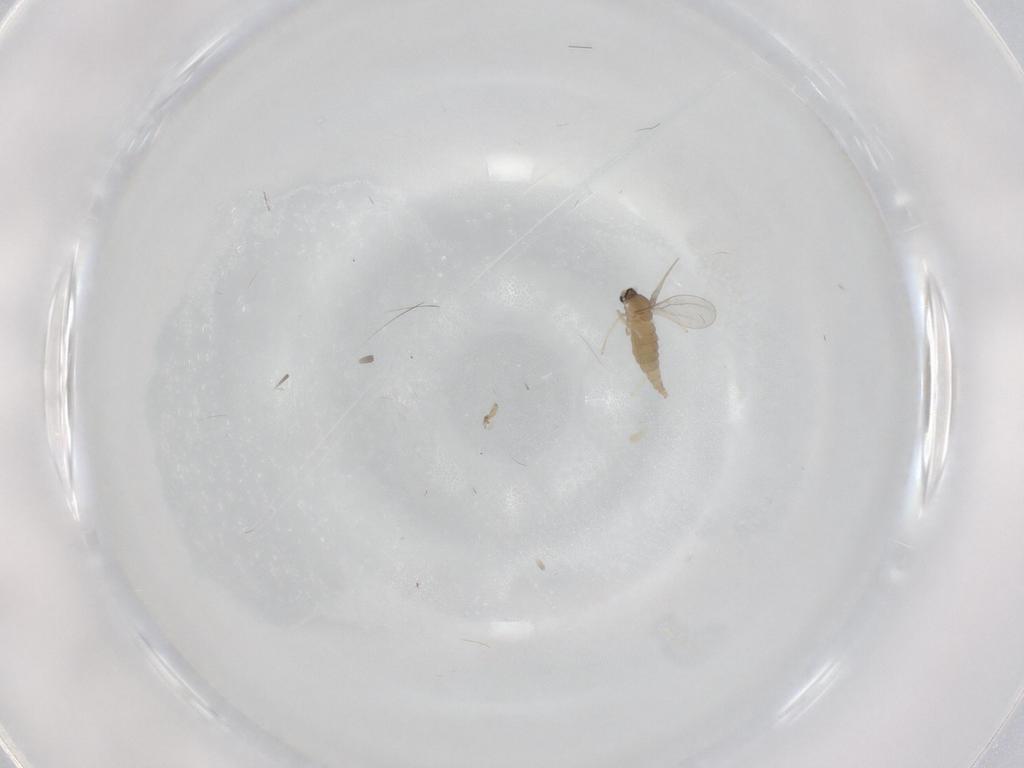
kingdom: Animalia
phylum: Arthropoda
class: Insecta
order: Diptera
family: Cecidomyiidae
